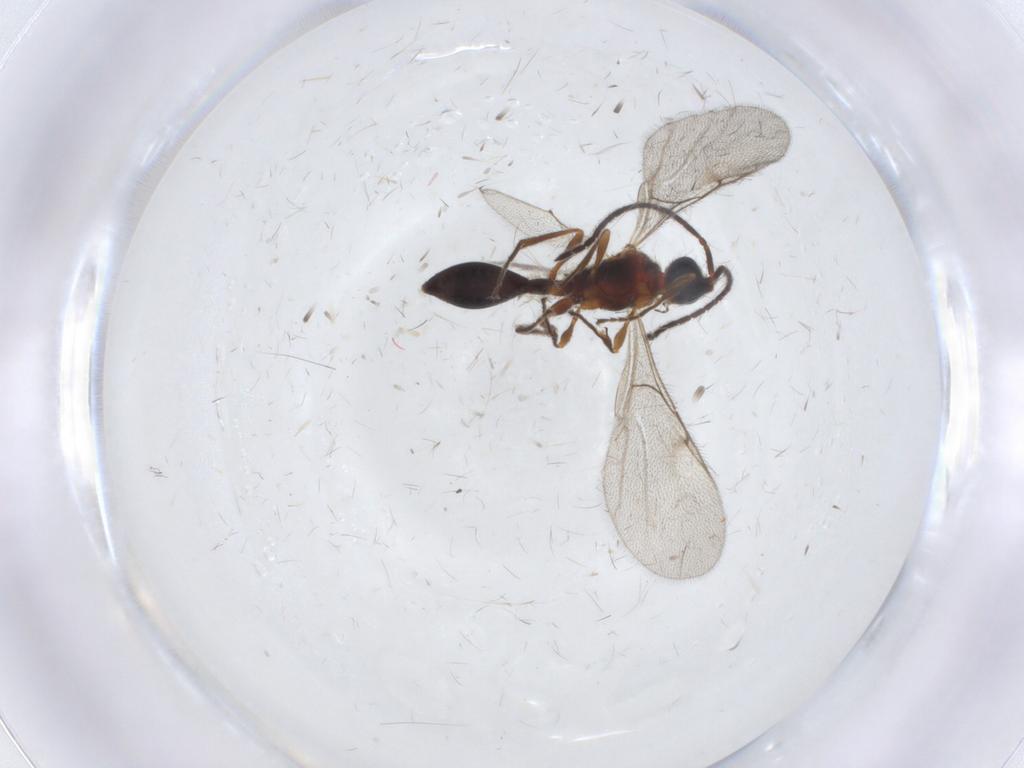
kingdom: Animalia
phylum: Arthropoda
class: Insecta
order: Hymenoptera
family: Diapriidae
